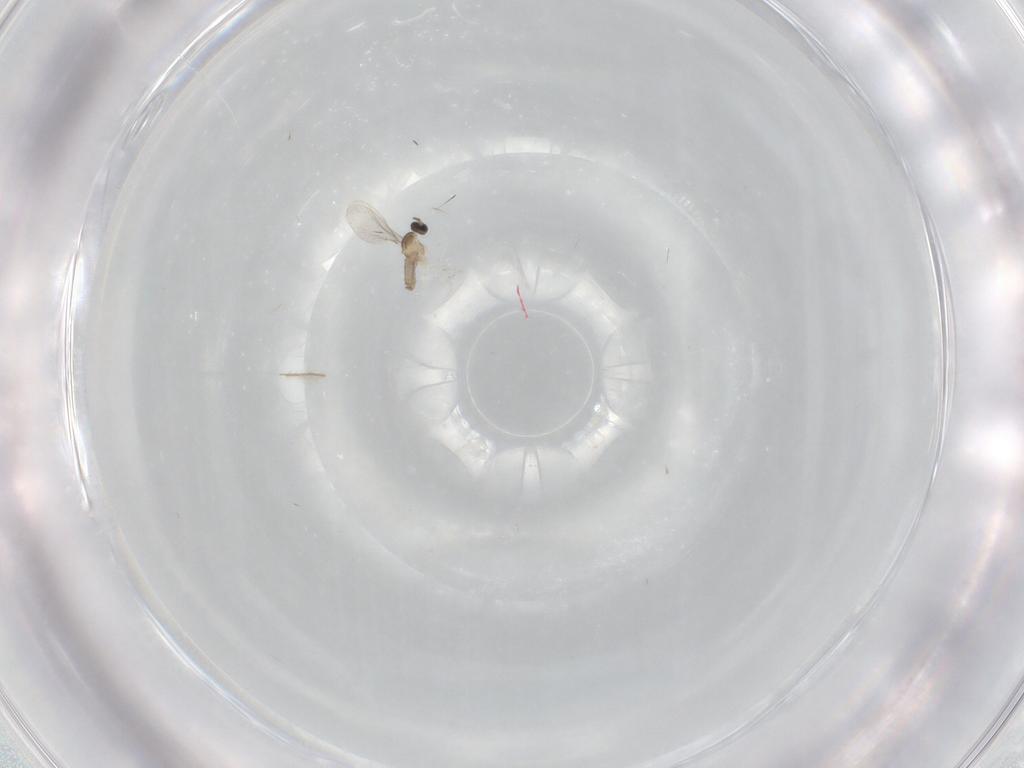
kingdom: Animalia
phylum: Arthropoda
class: Insecta
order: Diptera
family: Cecidomyiidae
